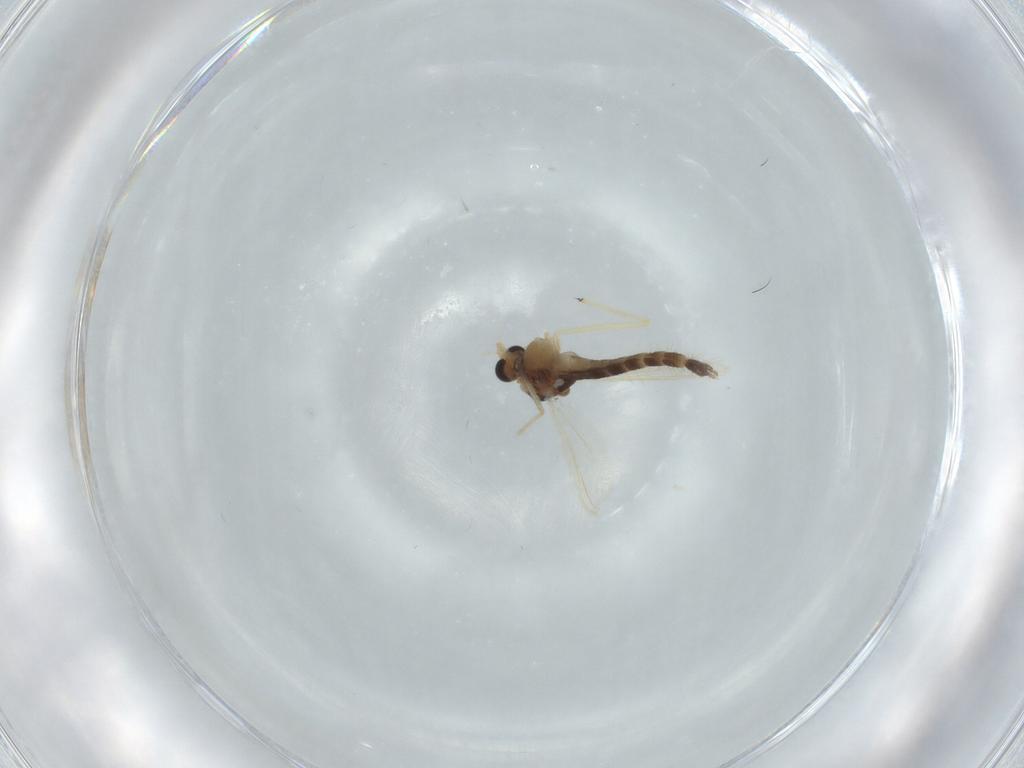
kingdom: Animalia
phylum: Arthropoda
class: Insecta
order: Diptera
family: Chironomidae
